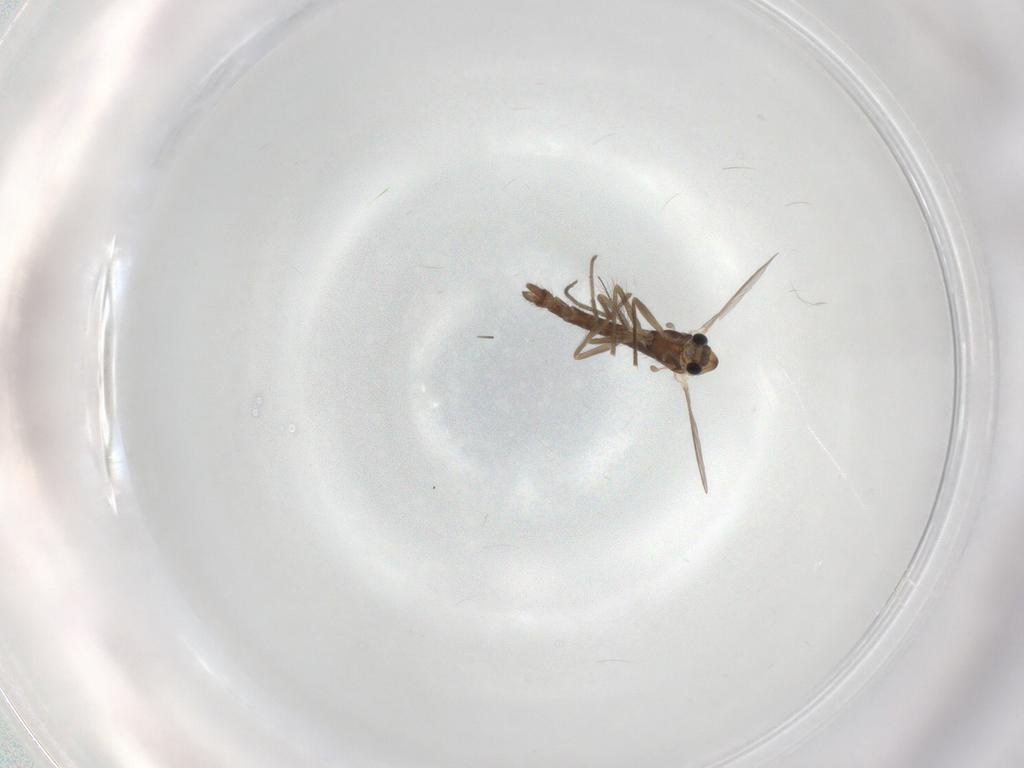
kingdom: Animalia
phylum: Arthropoda
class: Insecta
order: Diptera
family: Chironomidae
